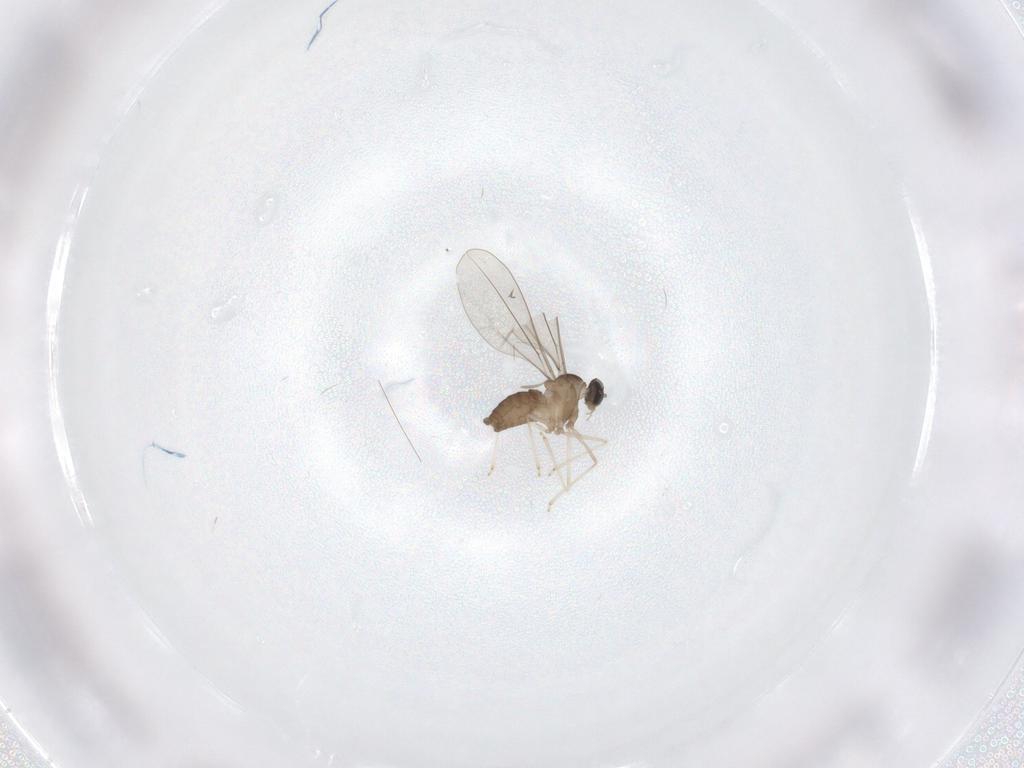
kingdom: Animalia
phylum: Arthropoda
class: Insecta
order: Diptera
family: Cecidomyiidae
